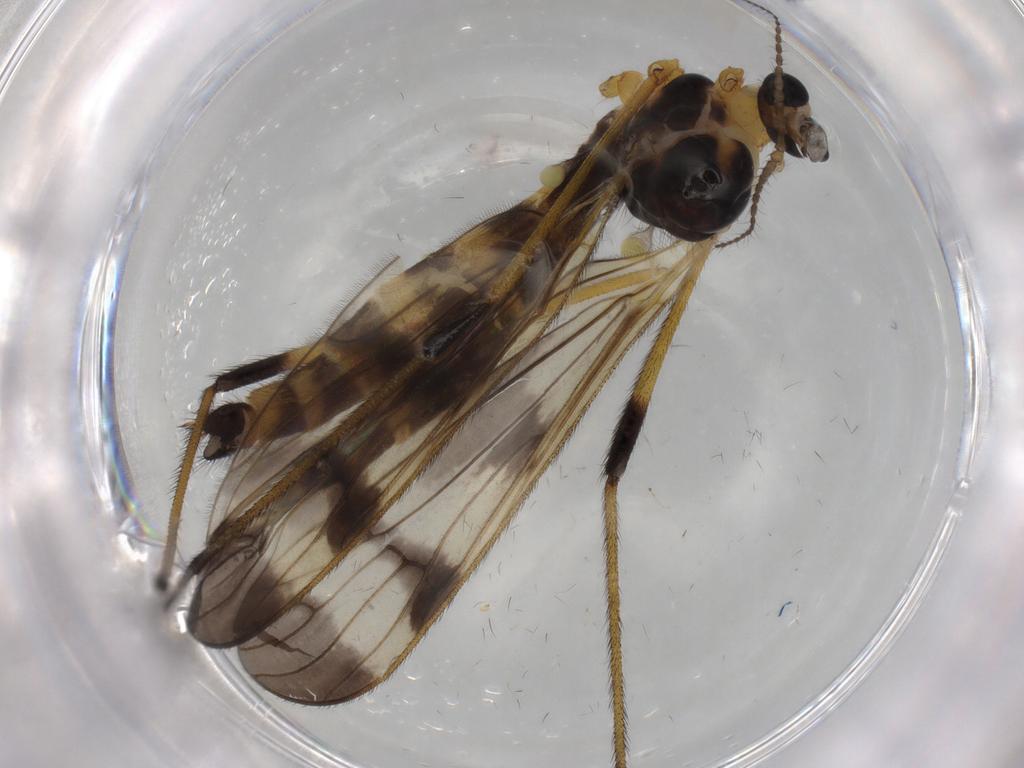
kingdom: Animalia
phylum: Arthropoda
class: Insecta
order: Diptera
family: Limoniidae
